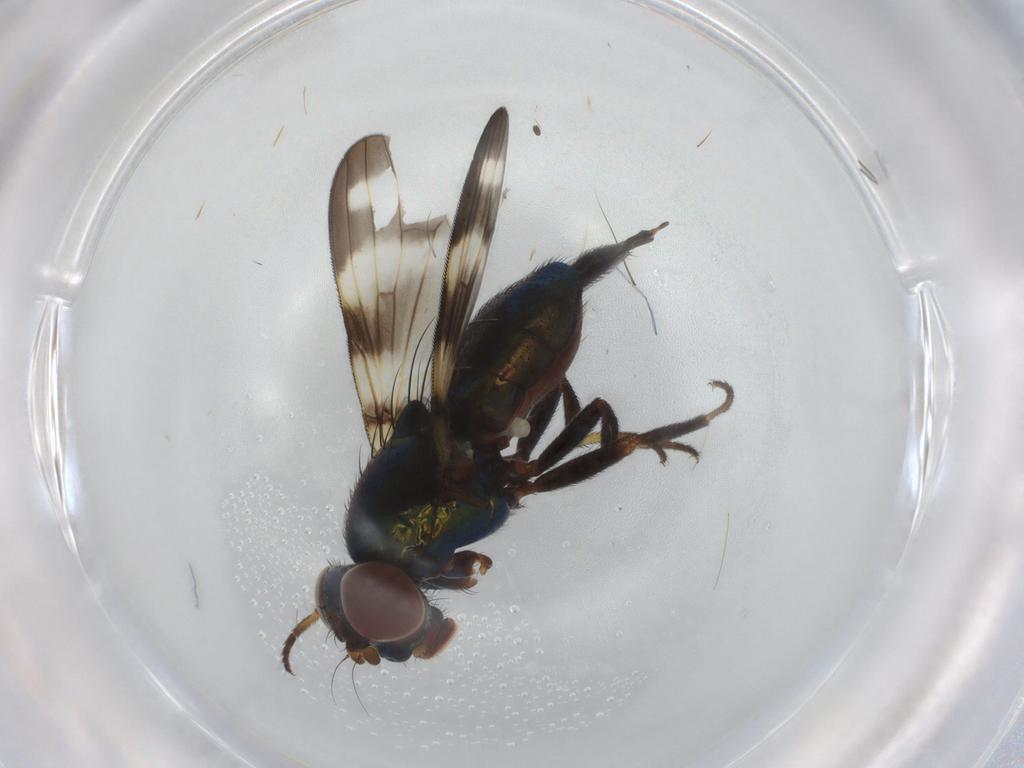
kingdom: Animalia
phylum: Arthropoda
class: Insecta
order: Diptera
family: Ulidiidae
